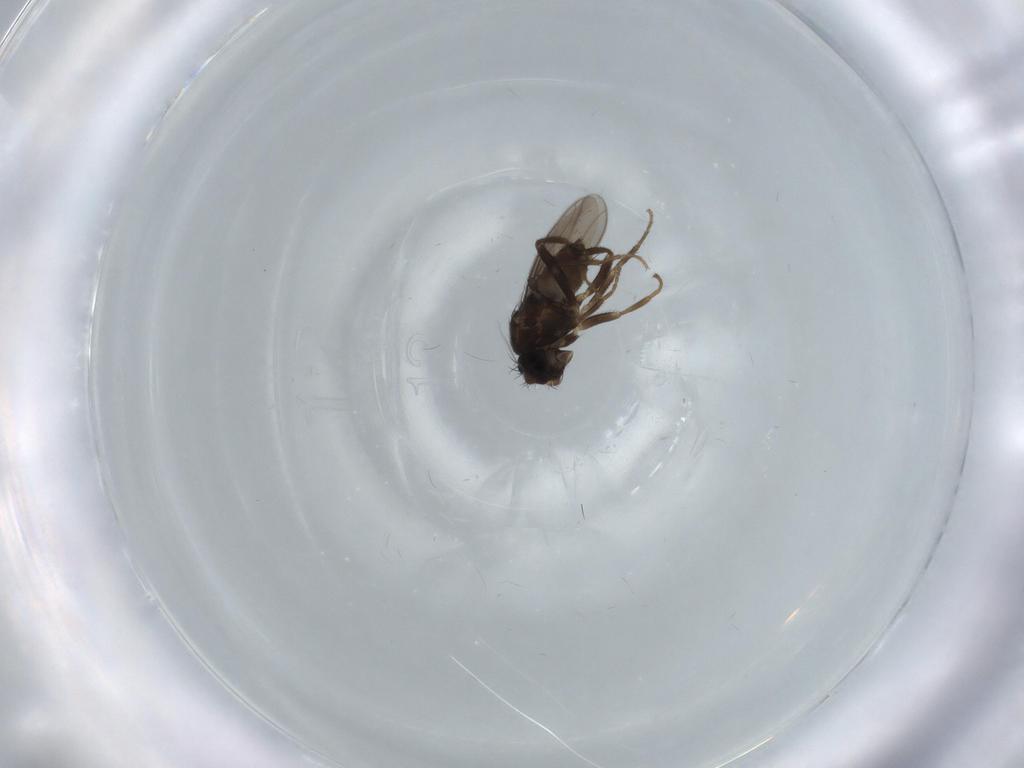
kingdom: Animalia
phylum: Arthropoda
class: Insecta
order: Diptera
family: Sphaeroceridae
